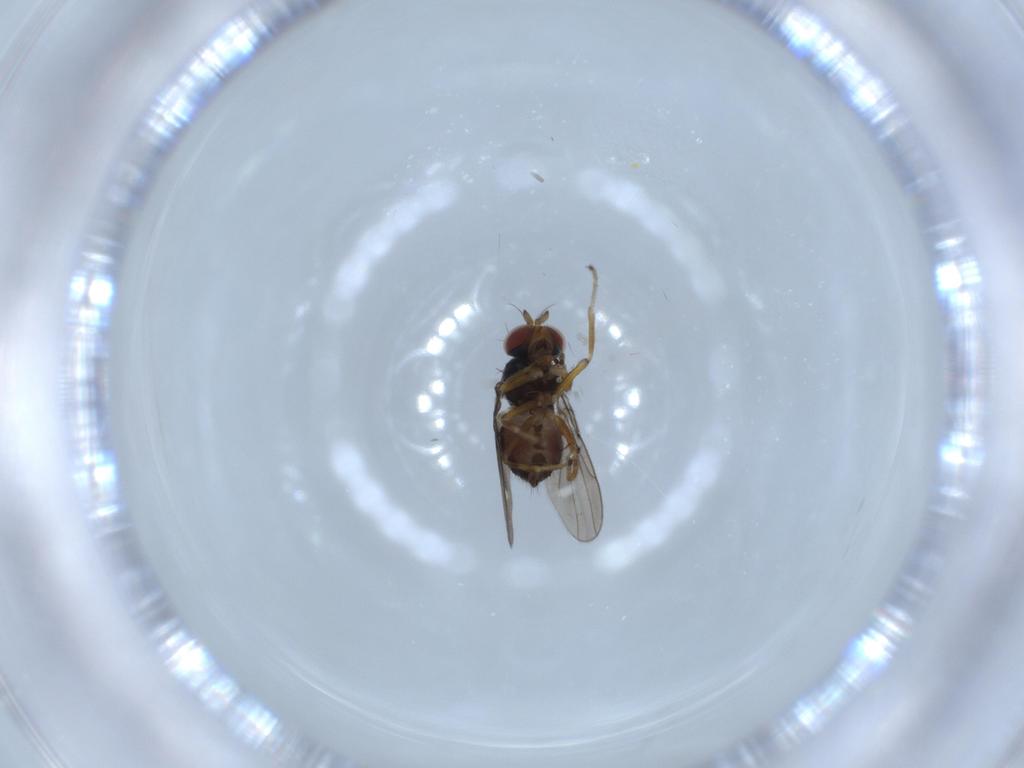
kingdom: Animalia
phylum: Arthropoda
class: Insecta
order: Diptera
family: Ephydridae
